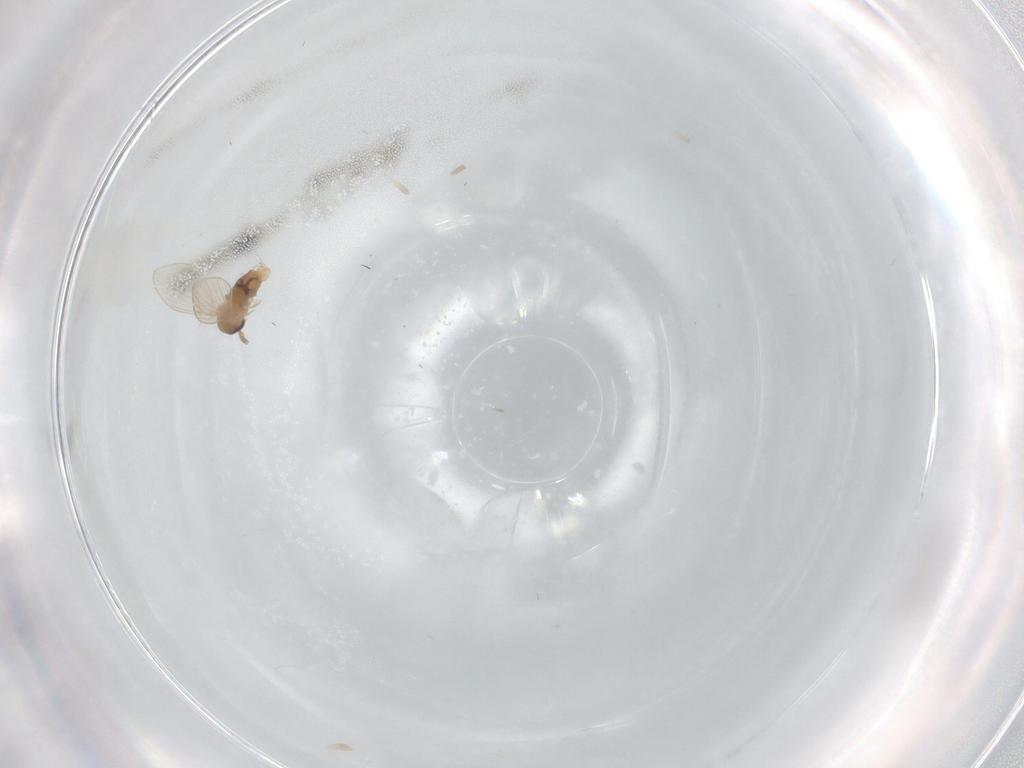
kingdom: Animalia
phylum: Arthropoda
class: Insecta
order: Diptera
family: Psychodidae
